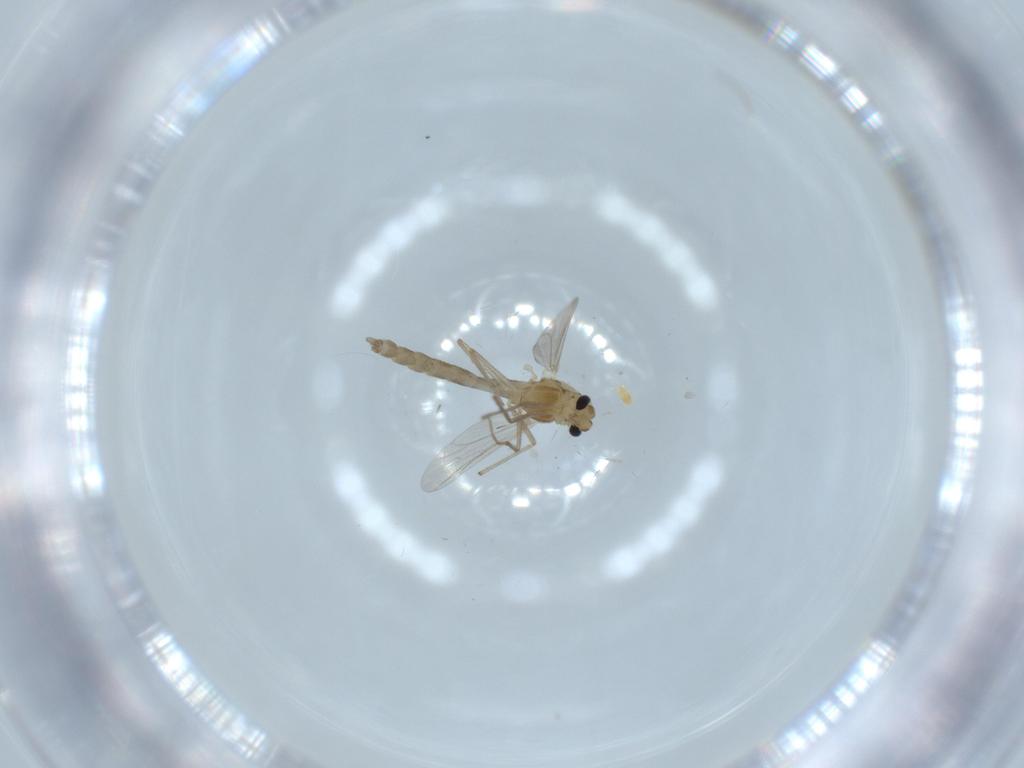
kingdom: Animalia
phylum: Arthropoda
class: Insecta
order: Diptera
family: Chironomidae
